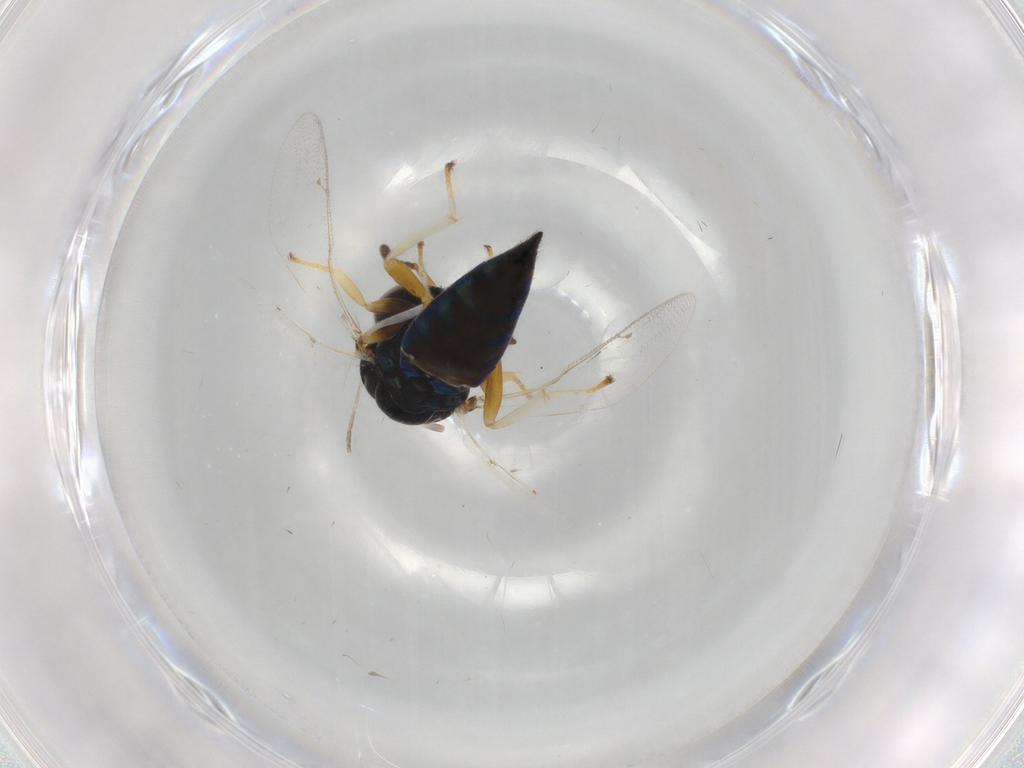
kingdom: Animalia
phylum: Arthropoda
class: Insecta
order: Hymenoptera
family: Pteromalidae
